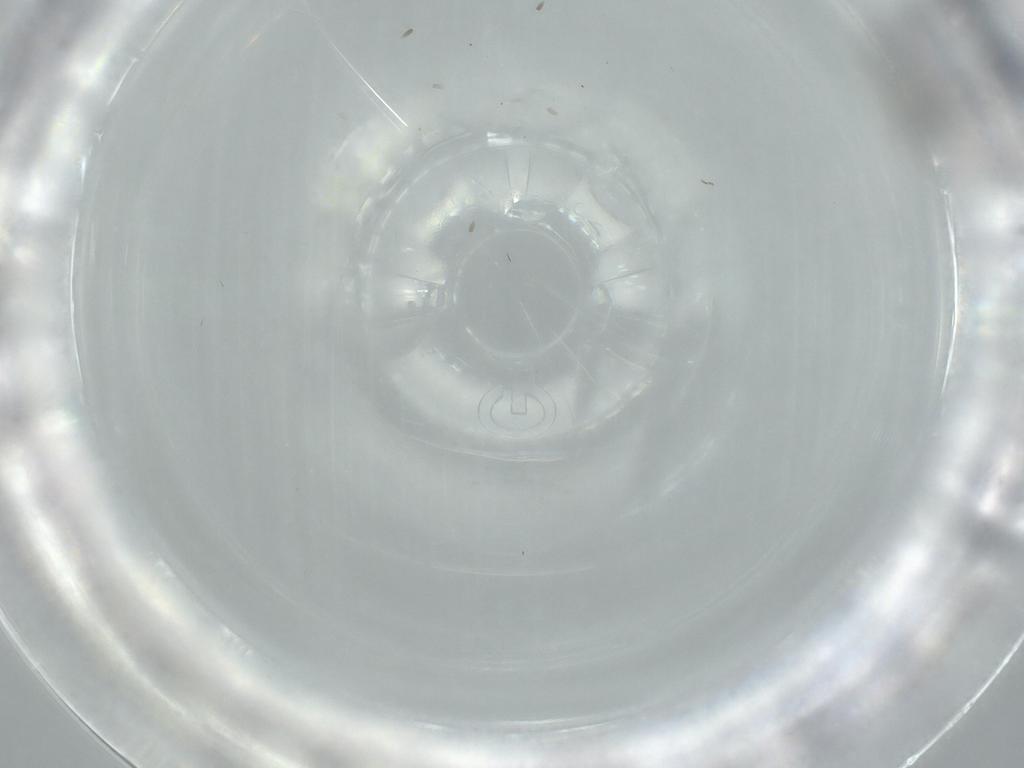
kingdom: Animalia
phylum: Arthropoda
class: Insecta
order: Diptera
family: Sciaridae
